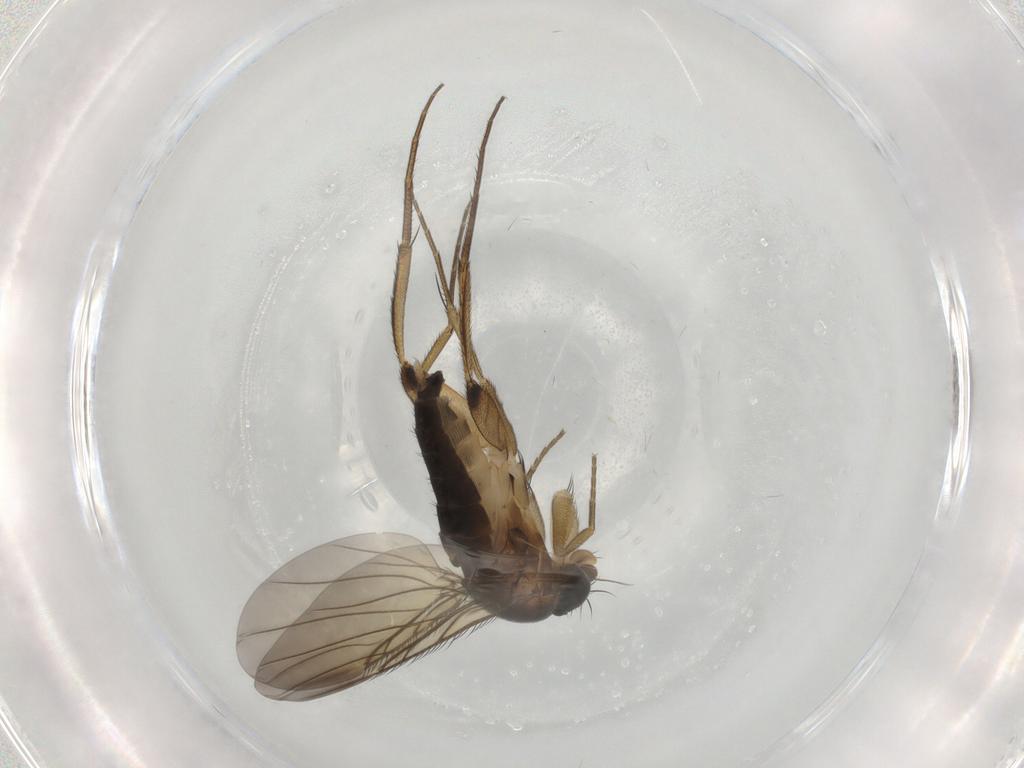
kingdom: Animalia
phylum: Arthropoda
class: Insecta
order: Diptera
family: Phoridae
